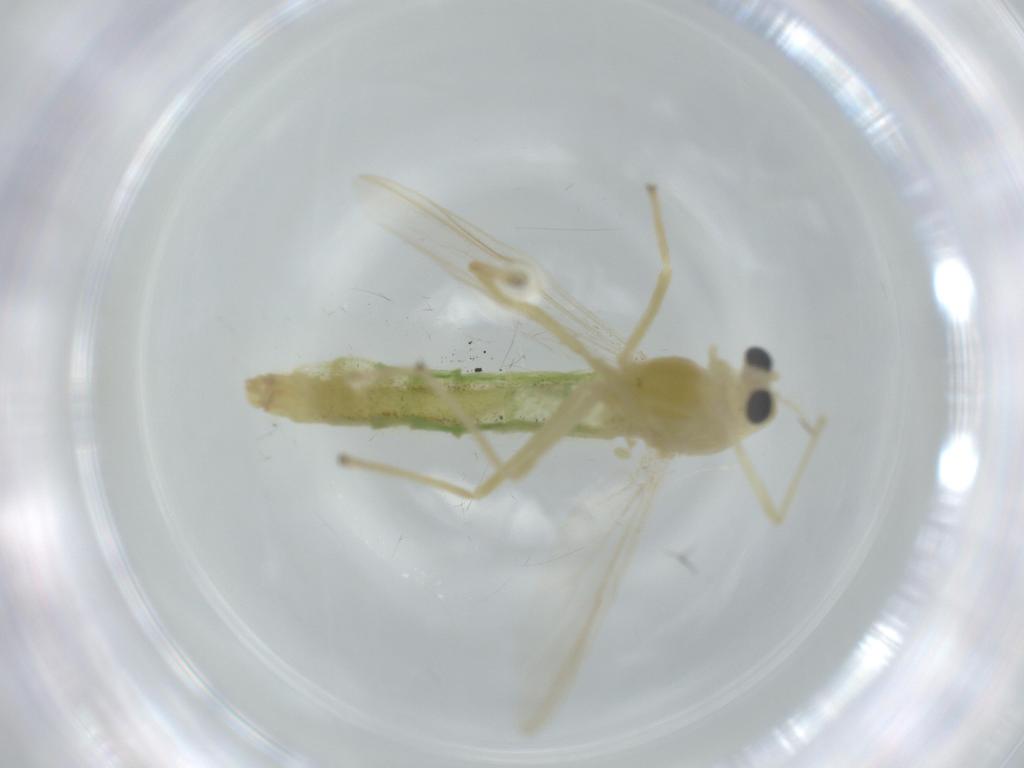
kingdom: Animalia
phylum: Arthropoda
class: Insecta
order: Diptera
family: Chironomidae
